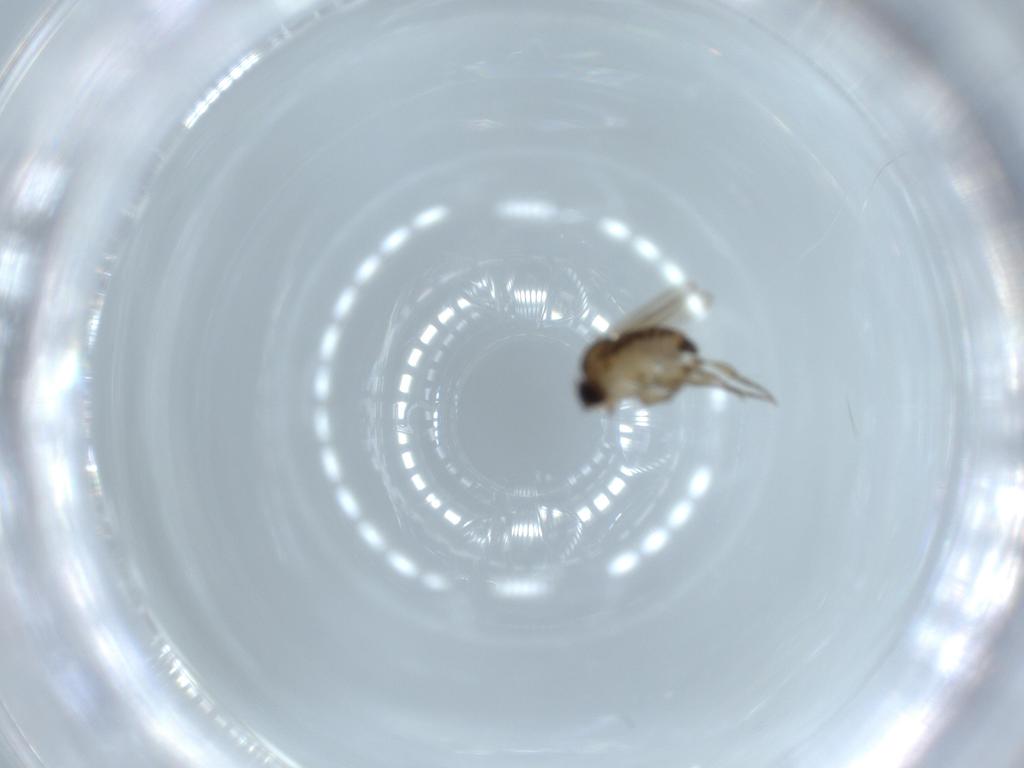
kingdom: Animalia
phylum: Arthropoda
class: Insecta
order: Diptera
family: Phoridae
